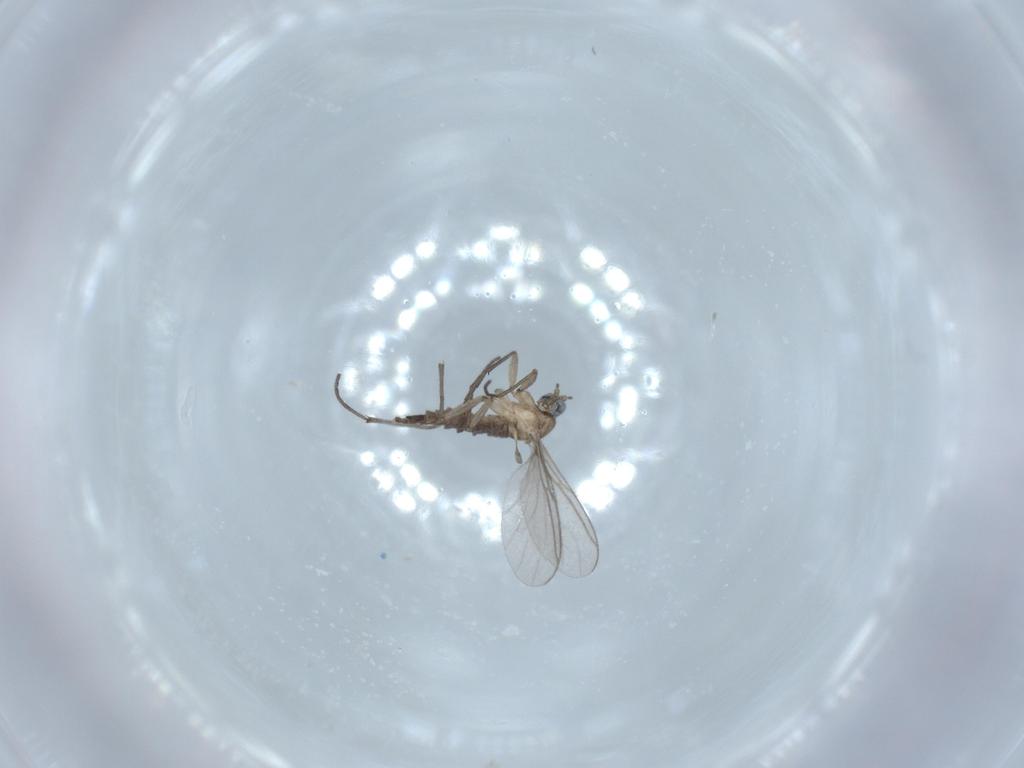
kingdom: Animalia
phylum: Arthropoda
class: Insecta
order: Diptera
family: Sciaridae
